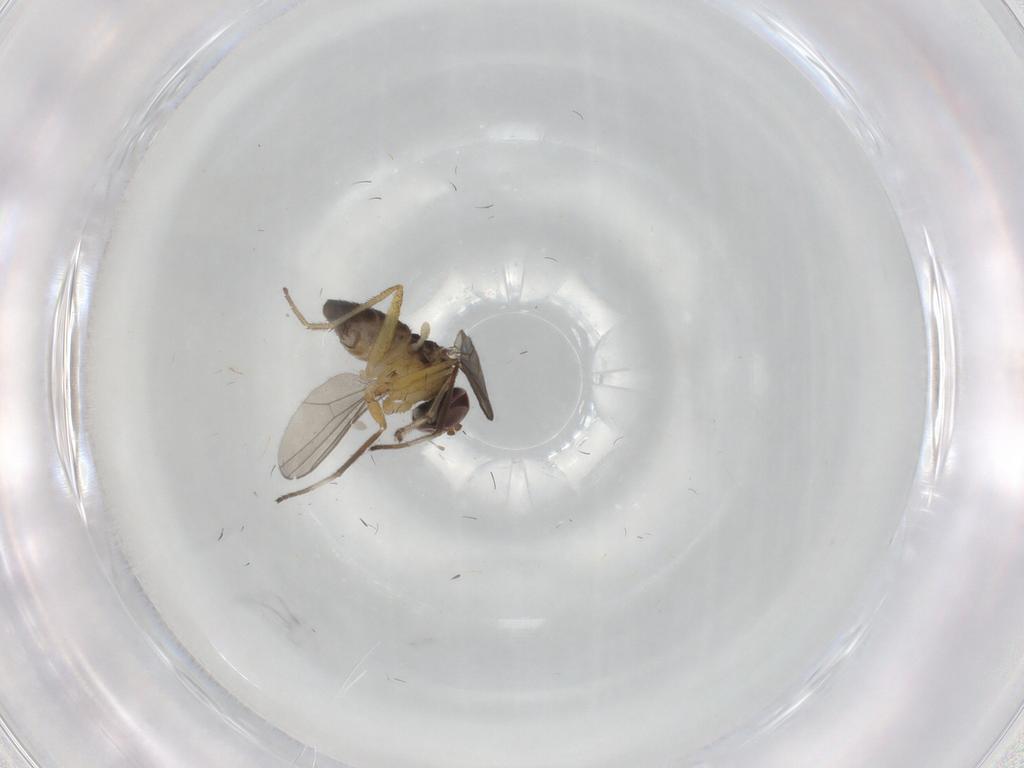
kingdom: Animalia
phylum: Arthropoda
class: Insecta
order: Diptera
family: Dolichopodidae
